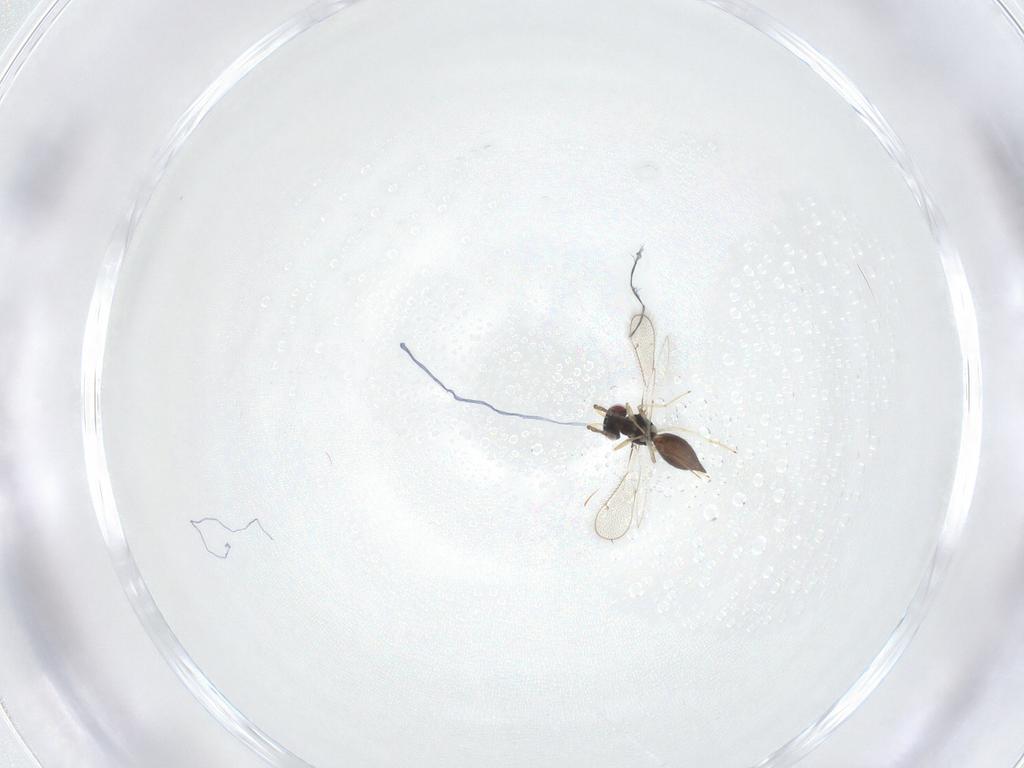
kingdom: Animalia
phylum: Arthropoda
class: Insecta
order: Hymenoptera
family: Eulophidae
